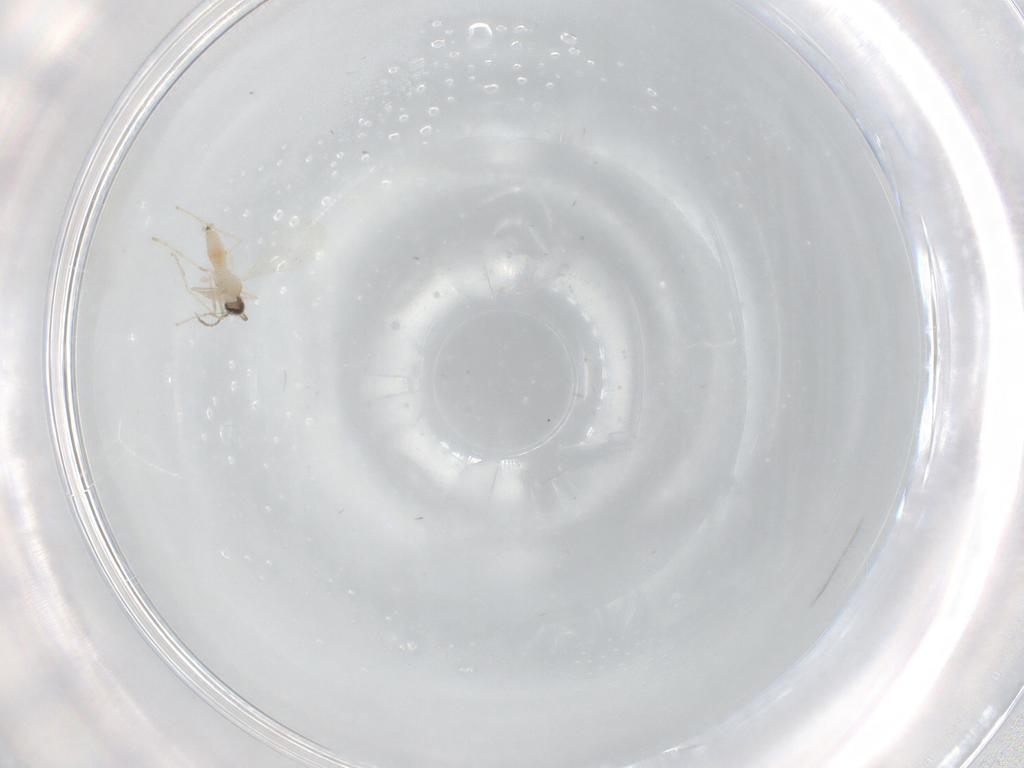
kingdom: Animalia
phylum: Arthropoda
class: Insecta
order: Diptera
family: Cecidomyiidae
